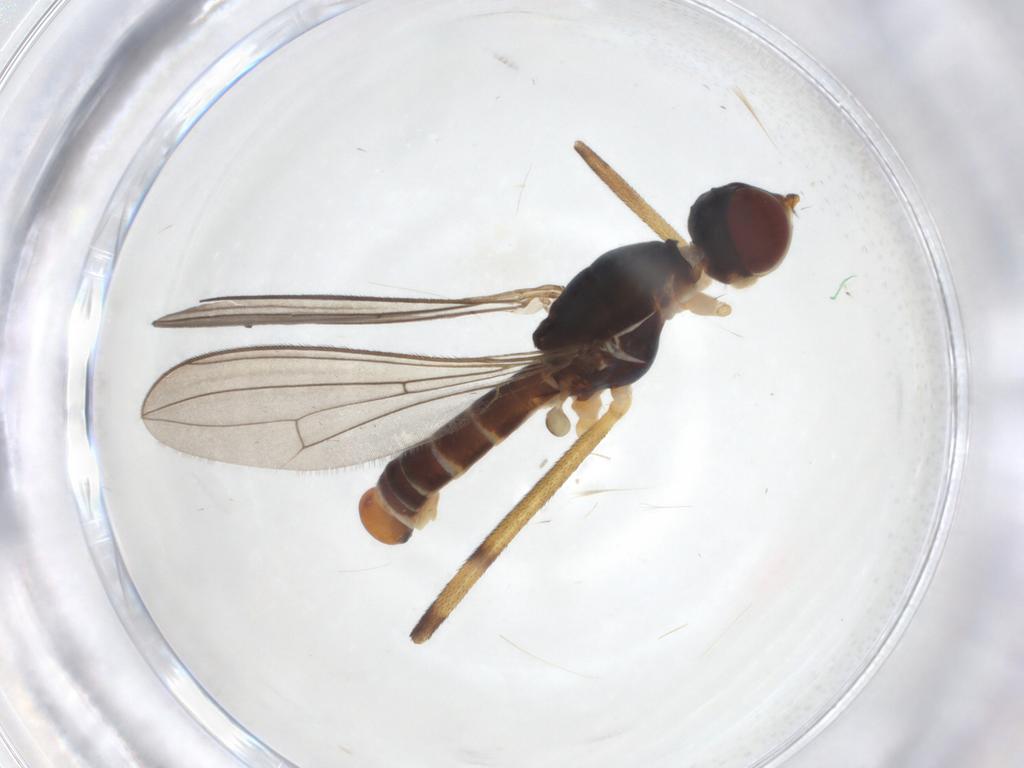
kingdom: Animalia
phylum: Arthropoda
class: Insecta
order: Diptera
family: Micropezidae
